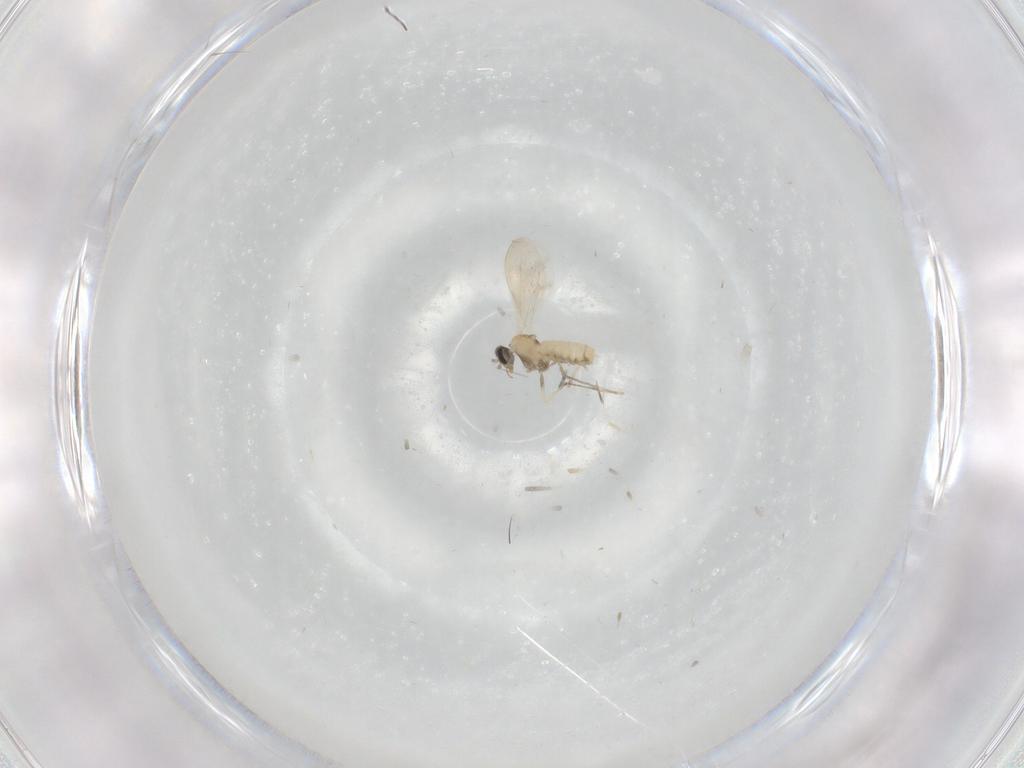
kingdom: Animalia
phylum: Arthropoda
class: Insecta
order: Diptera
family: Cecidomyiidae
